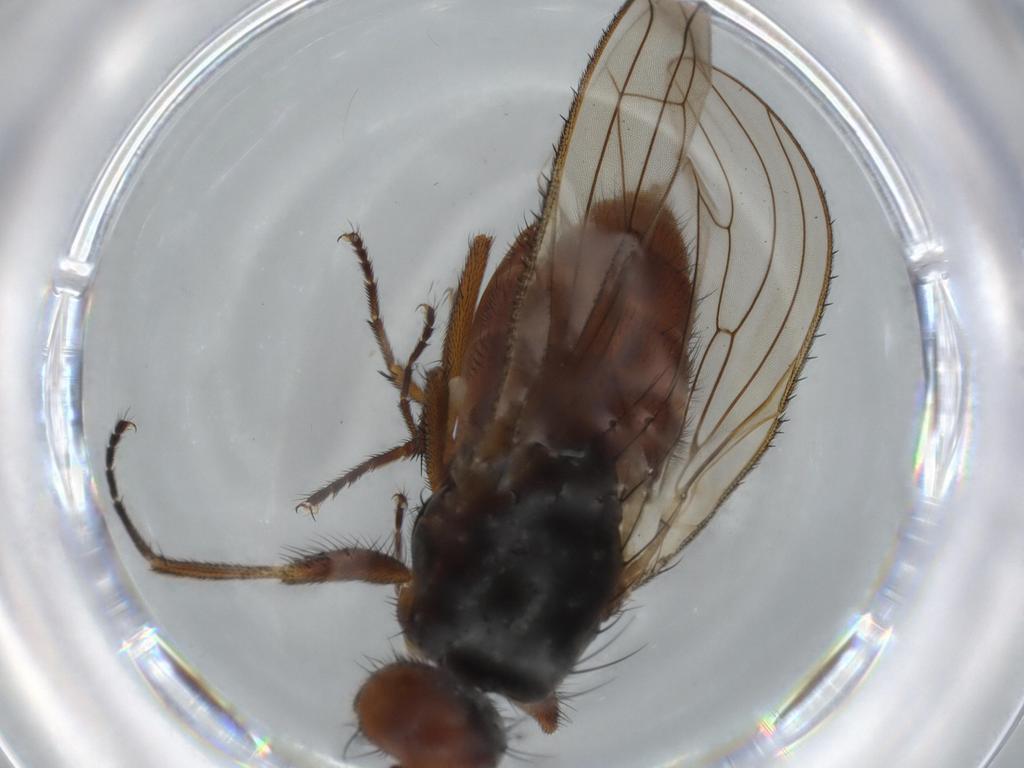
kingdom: Animalia
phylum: Arthropoda
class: Insecta
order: Diptera
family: Heleomyzidae
